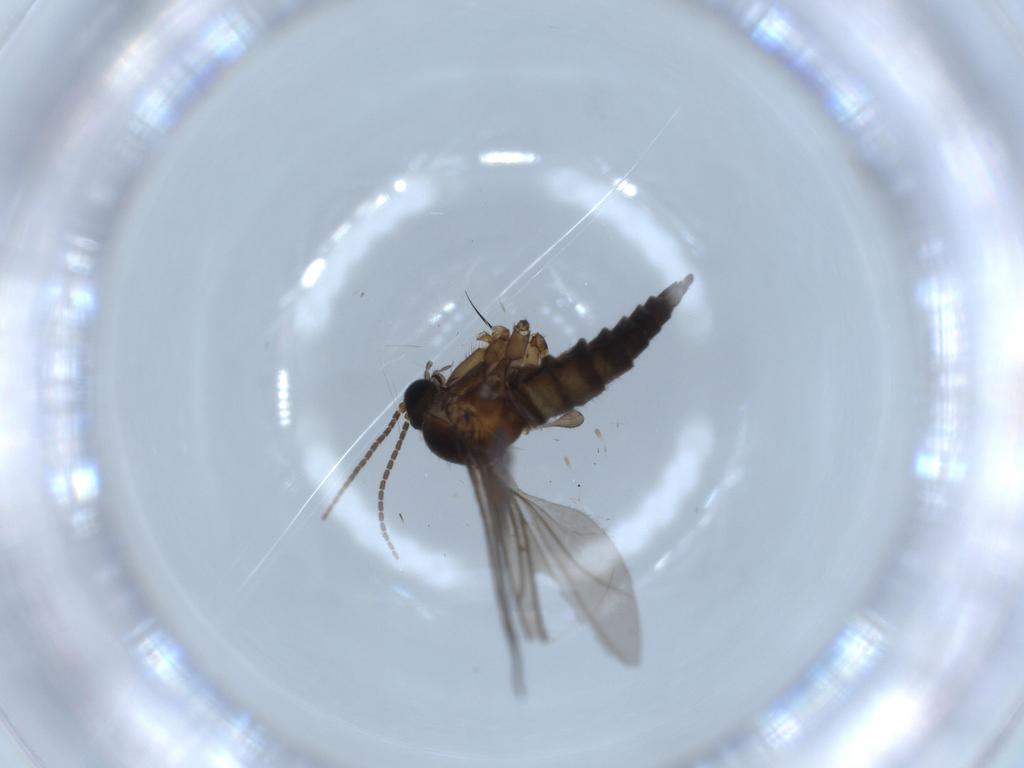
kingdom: Animalia
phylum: Arthropoda
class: Insecta
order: Diptera
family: Sciaridae
